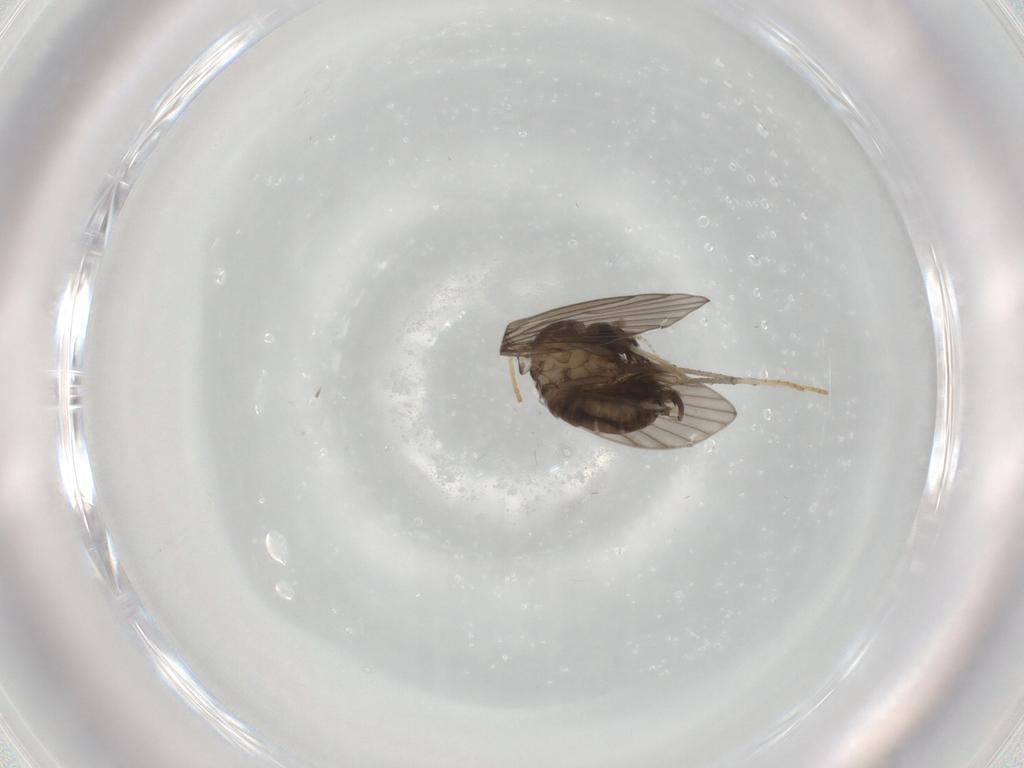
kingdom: Animalia
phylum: Arthropoda
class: Insecta
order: Diptera
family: Psychodidae
